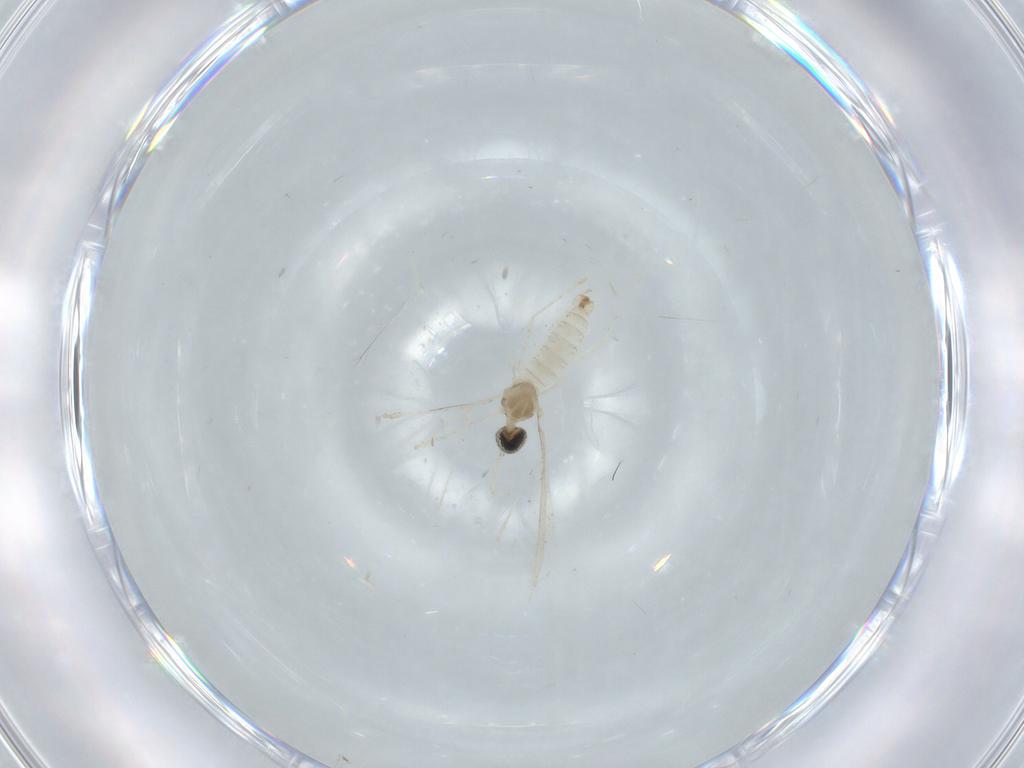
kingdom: Animalia
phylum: Arthropoda
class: Insecta
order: Diptera
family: Cecidomyiidae
